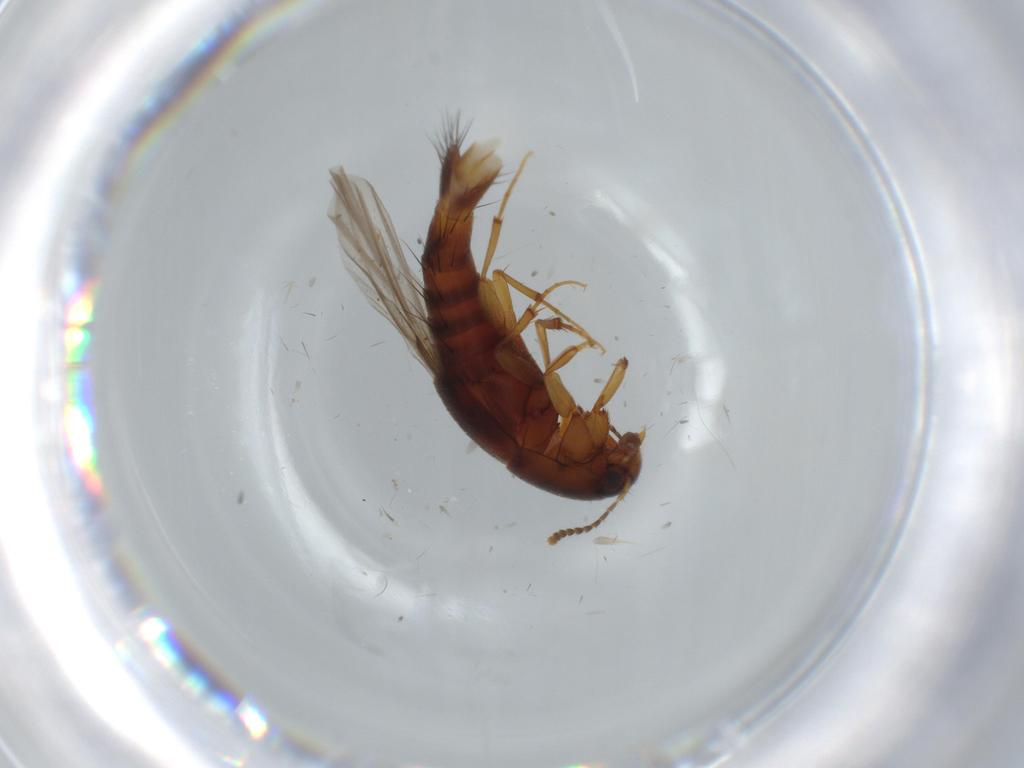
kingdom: Animalia
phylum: Arthropoda
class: Insecta
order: Coleoptera
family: Staphylinidae
